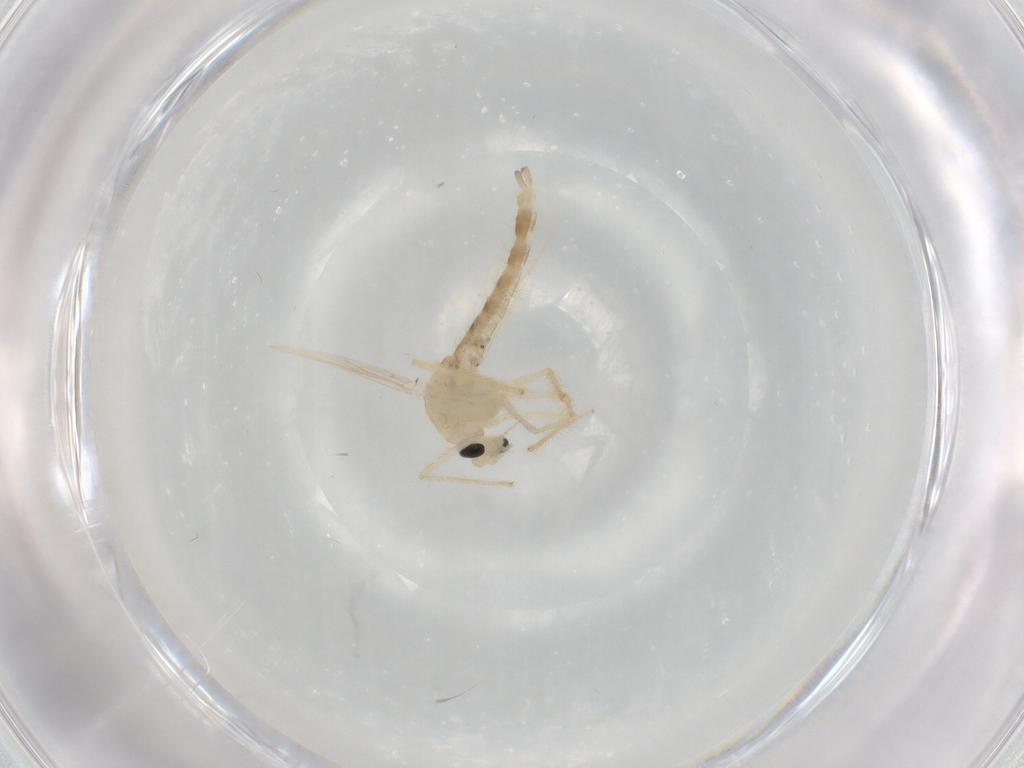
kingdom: Animalia
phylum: Arthropoda
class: Insecta
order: Diptera
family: Chironomidae
